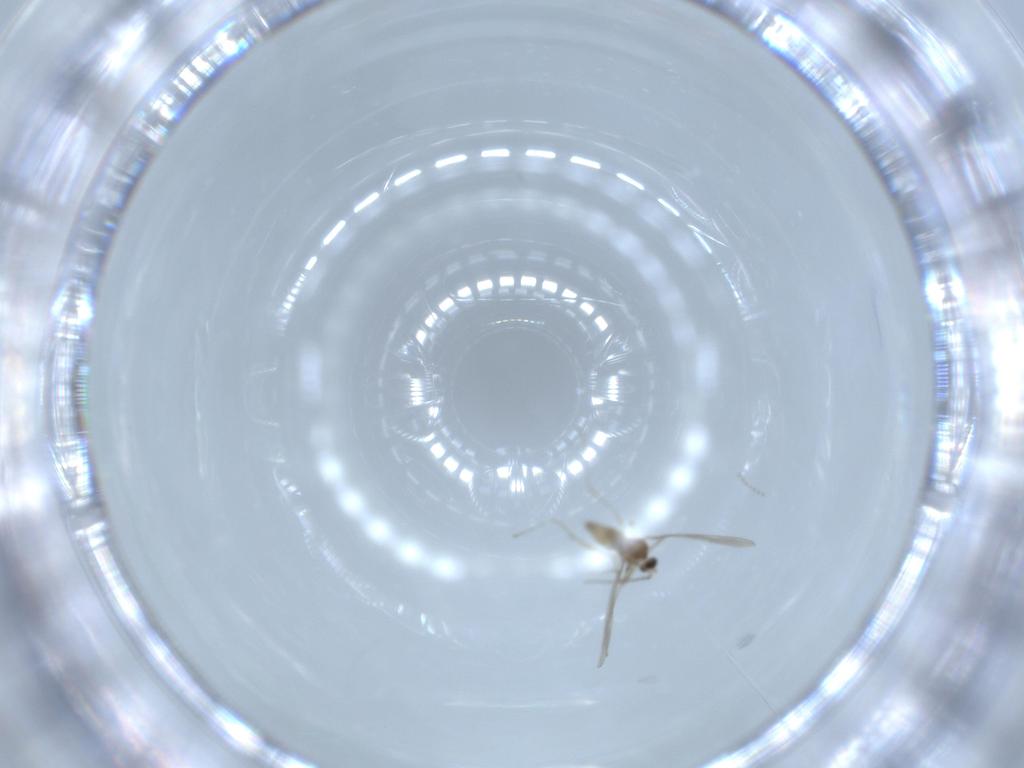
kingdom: Animalia
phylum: Arthropoda
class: Insecta
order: Diptera
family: Cecidomyiidae
